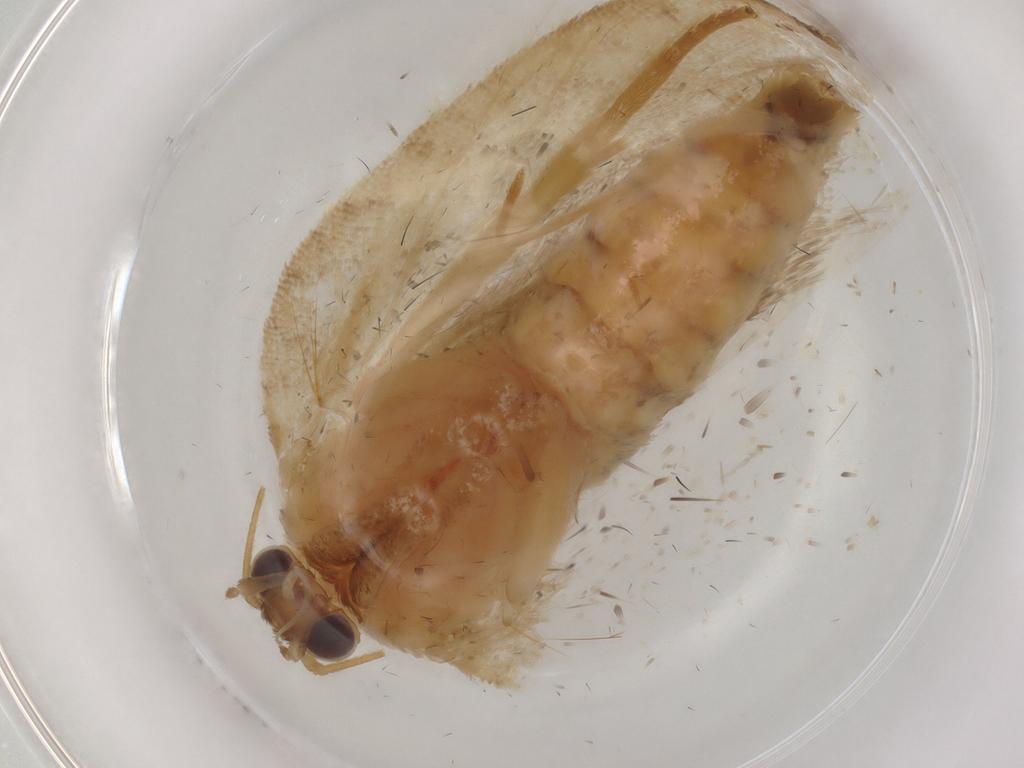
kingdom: Animalia
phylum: Arthropoda
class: Insecta
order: Lepidoptera
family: Tortricidae
